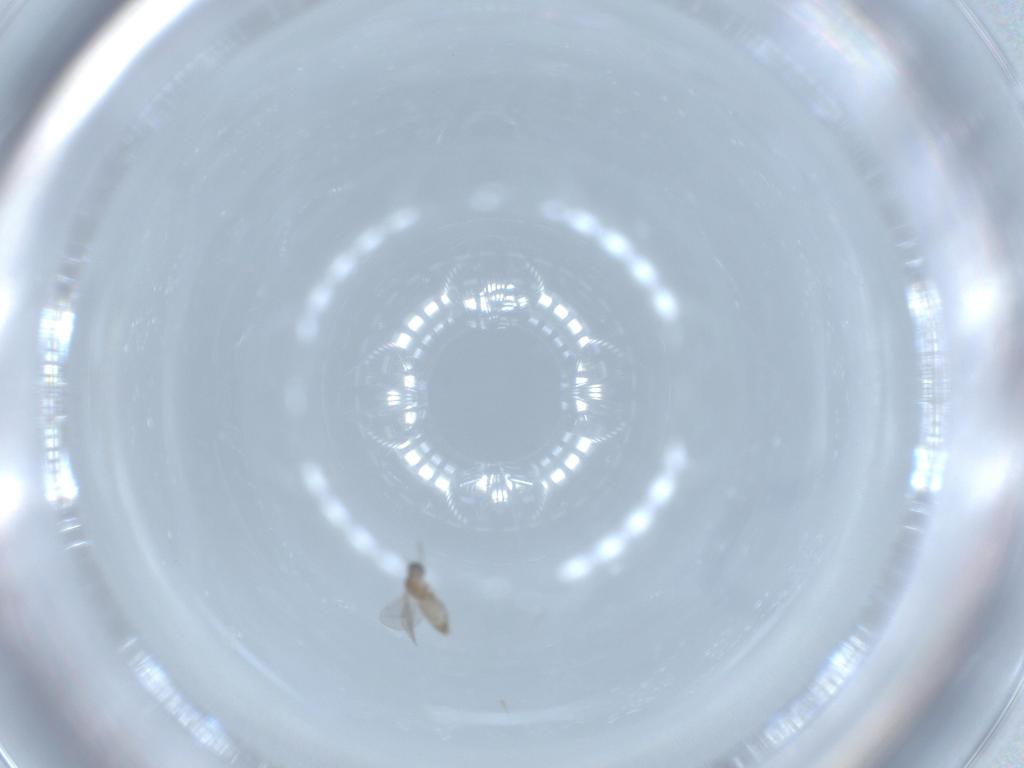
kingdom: Animalia
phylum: Arthropoda
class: Insecta
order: Diptera
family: Cecidomyiidae
